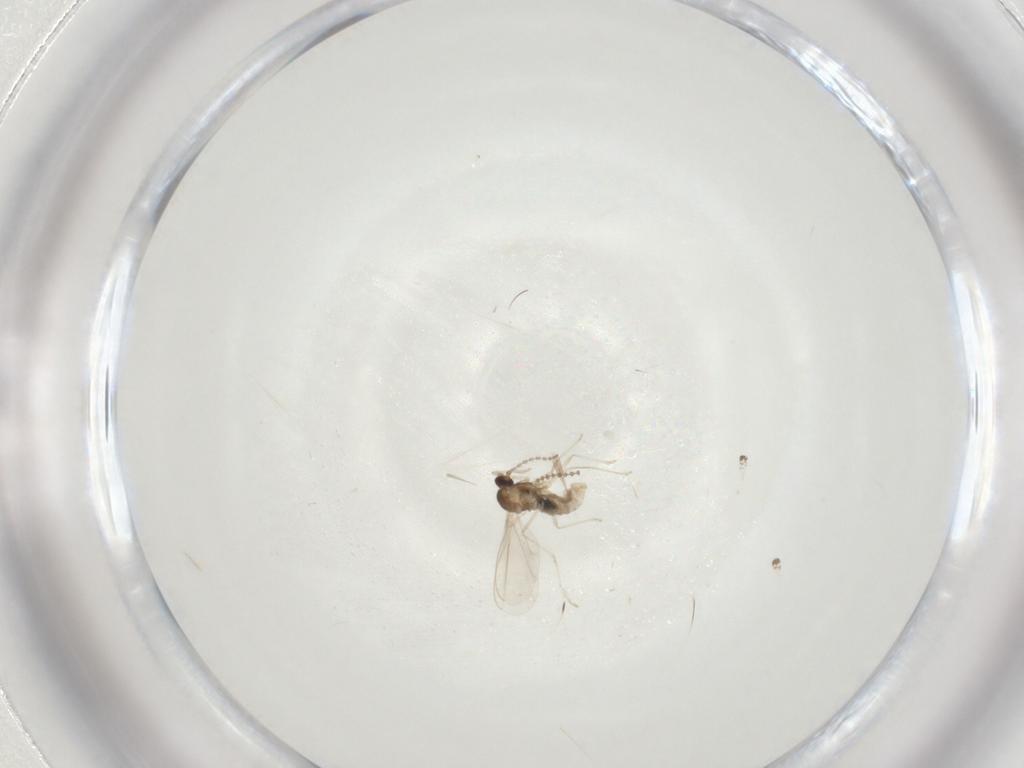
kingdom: Animalia
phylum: Arthropoda
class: Insecta
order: Diptera
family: Cecidomyiidae
